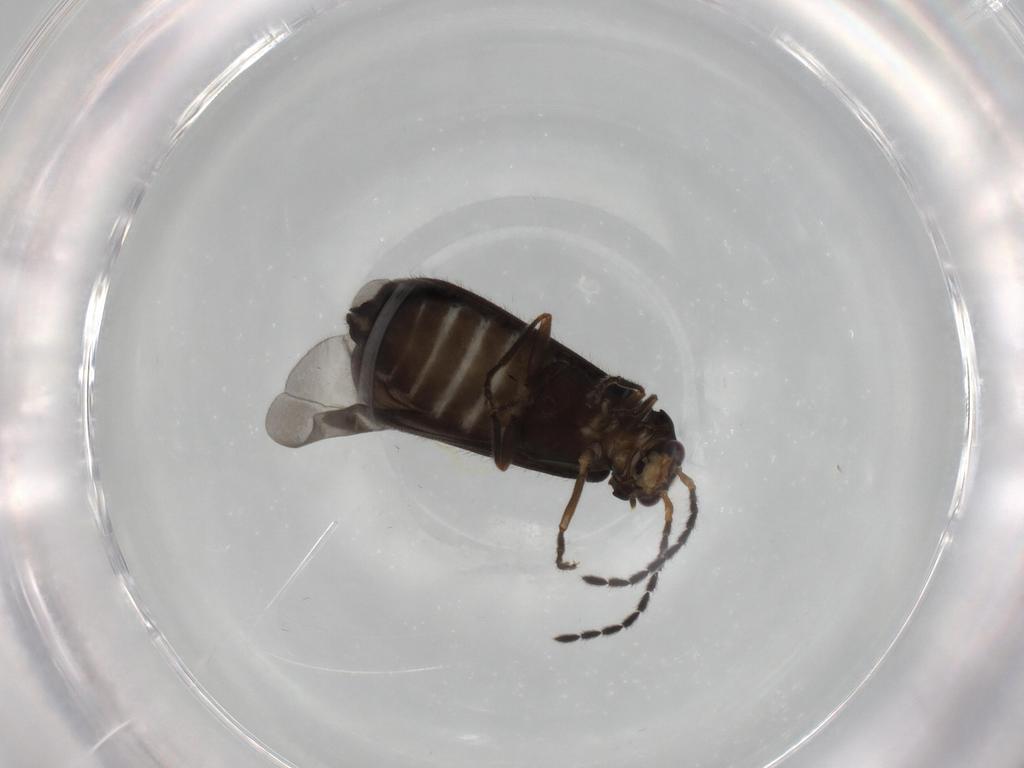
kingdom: Animalia
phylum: Arthropoda
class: Insecta
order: Coleoptera
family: Cantharidae
